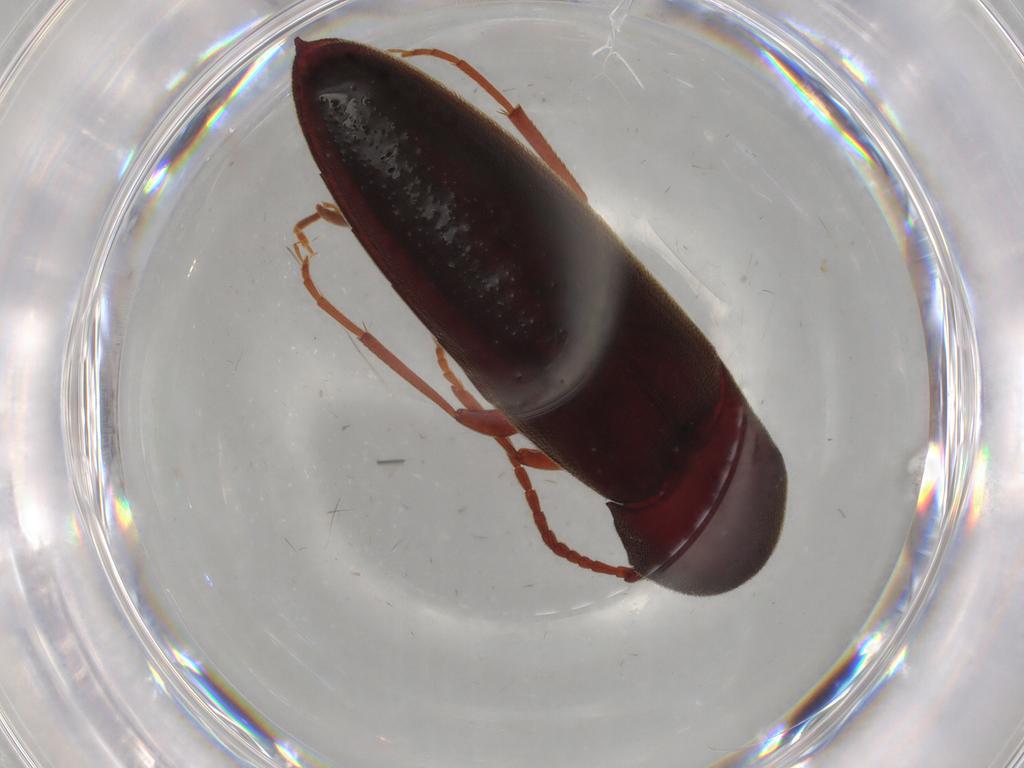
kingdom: Animalia
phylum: Arthropoda
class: Insecta
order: Coleoptera
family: Eucnemidae
